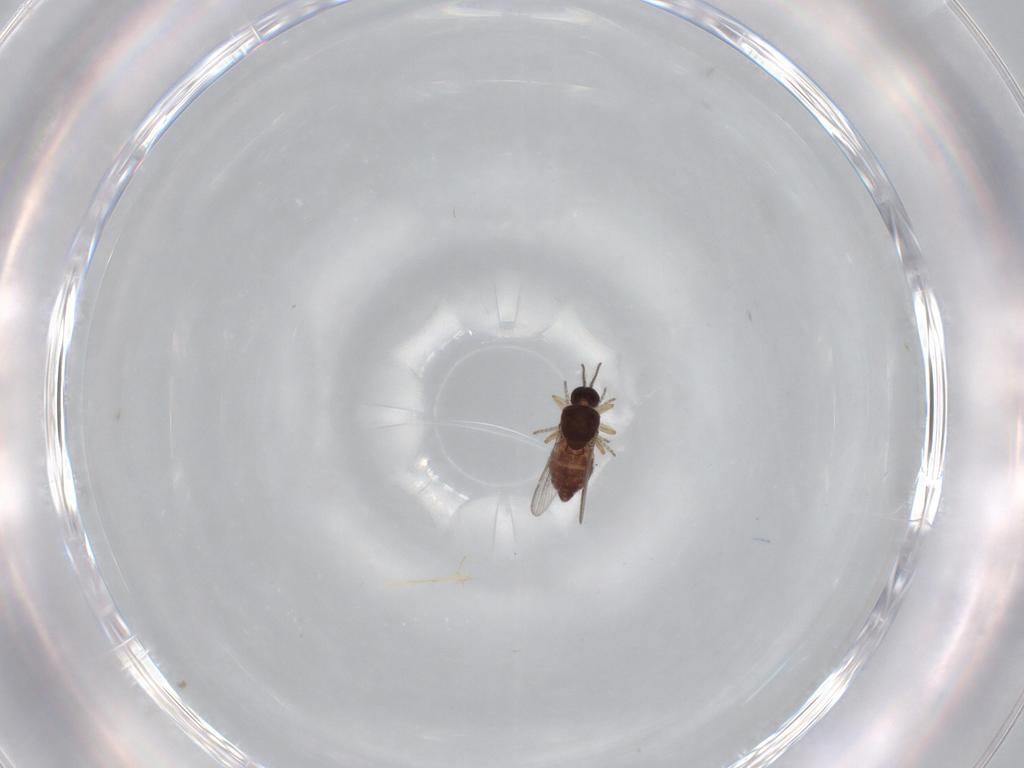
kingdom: Animalia
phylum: Arthropoda
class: Insecta
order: Diptera
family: Ceratopogonidae
